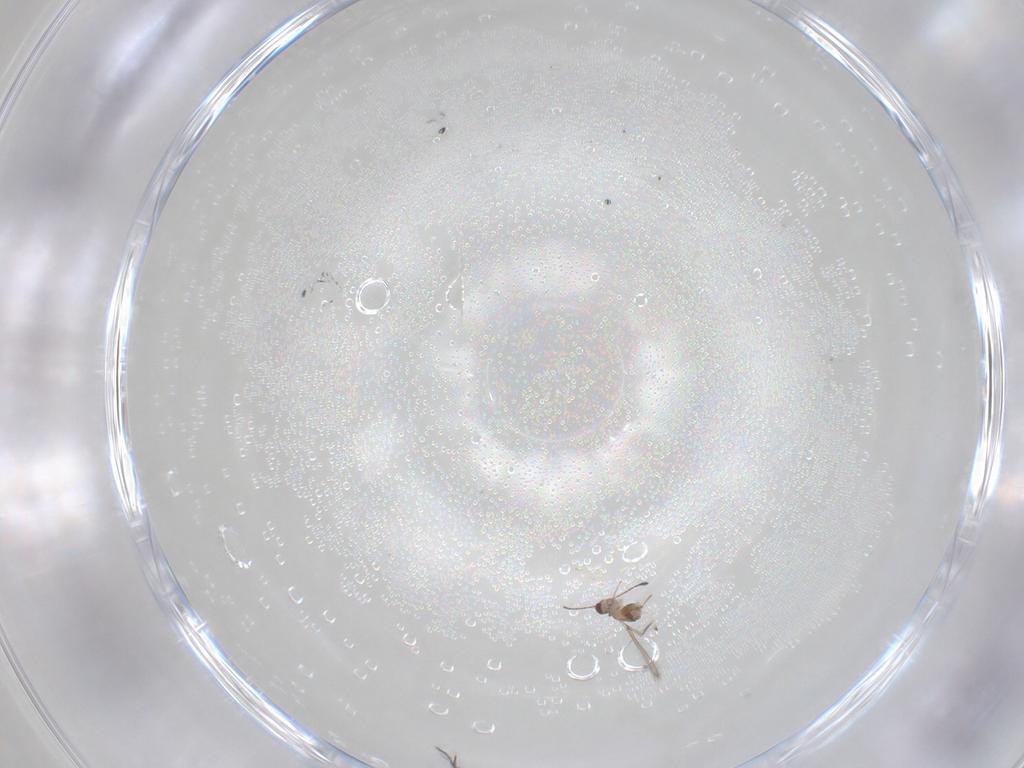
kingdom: Animalia
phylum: Arthropoda
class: Insecta
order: Hymenoptera
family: Mymaridae
